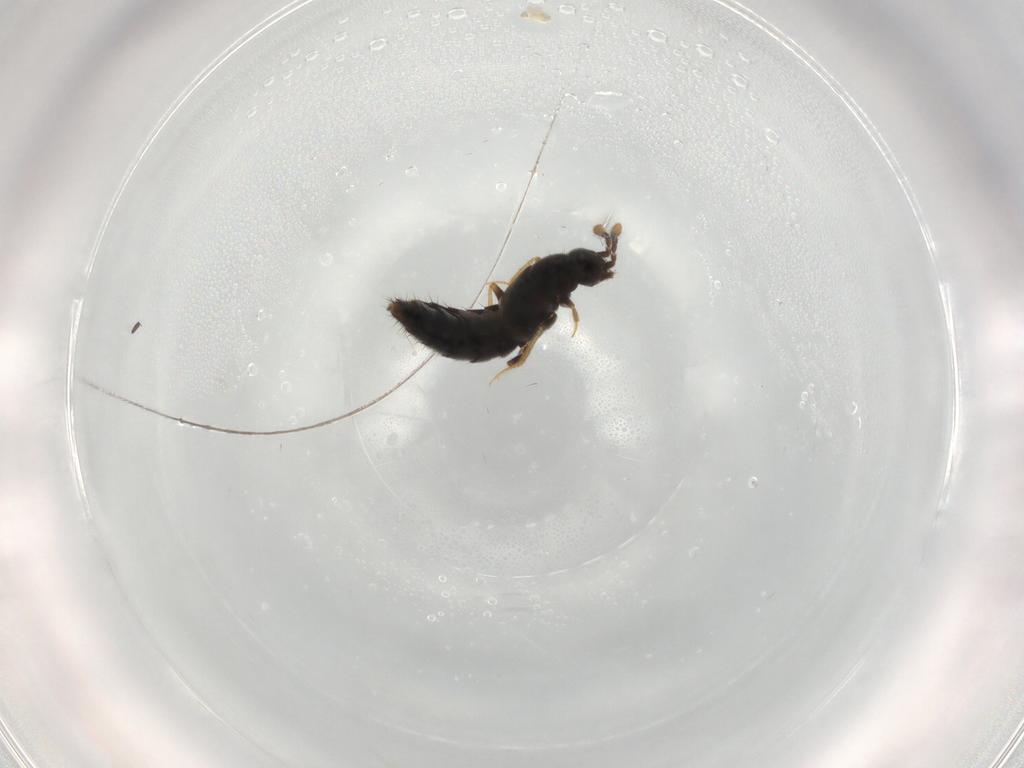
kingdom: Animalia
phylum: Arthropoda
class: Insecta
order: Coleoptera
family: Staphylinidae
